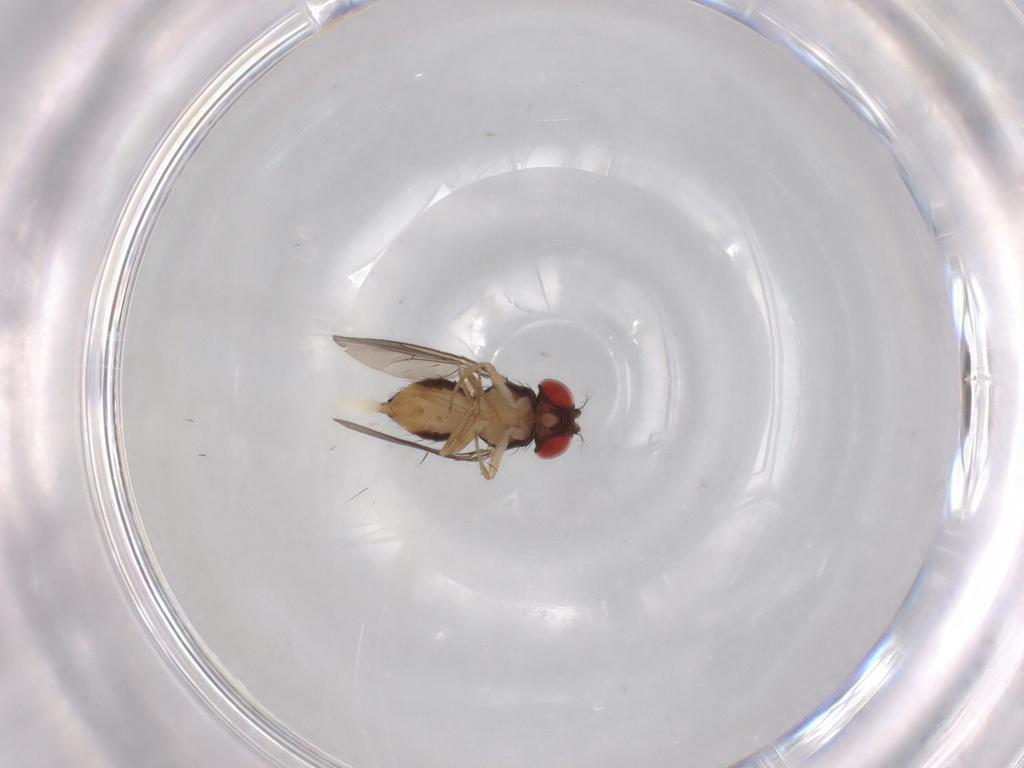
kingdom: Animalia
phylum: Arthropoda
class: Insecta
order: Diptera
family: Drosophilidae
